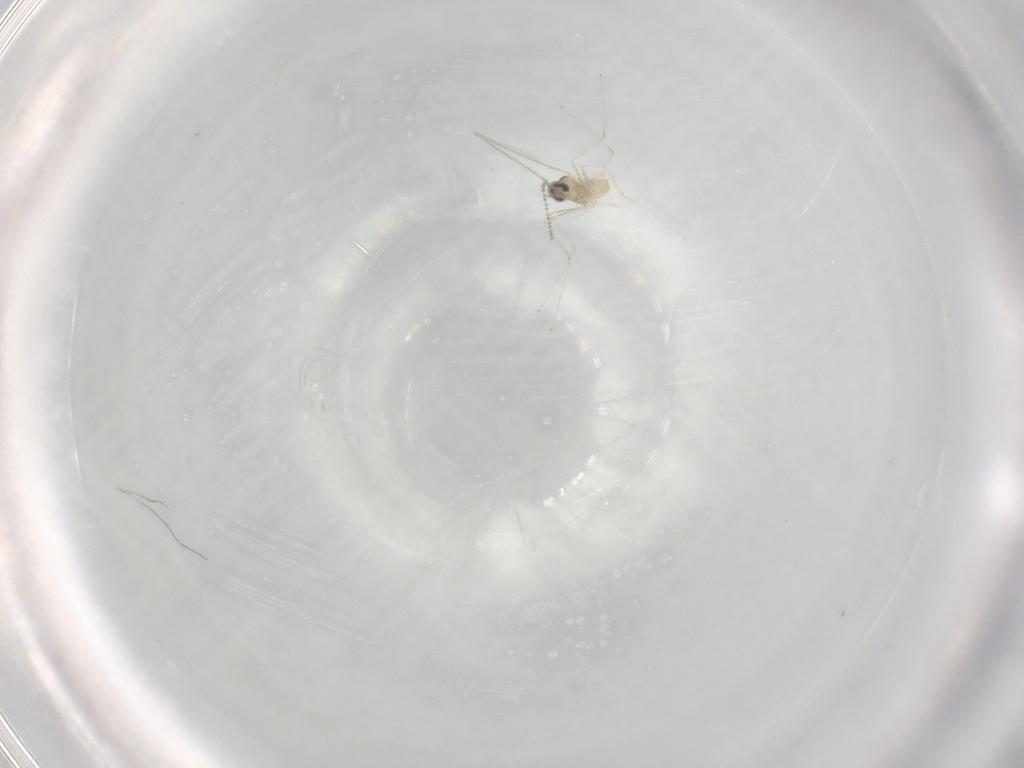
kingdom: Animalia
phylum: Arthropoda
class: Insecta
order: Diptera
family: Cecidomyiidae
